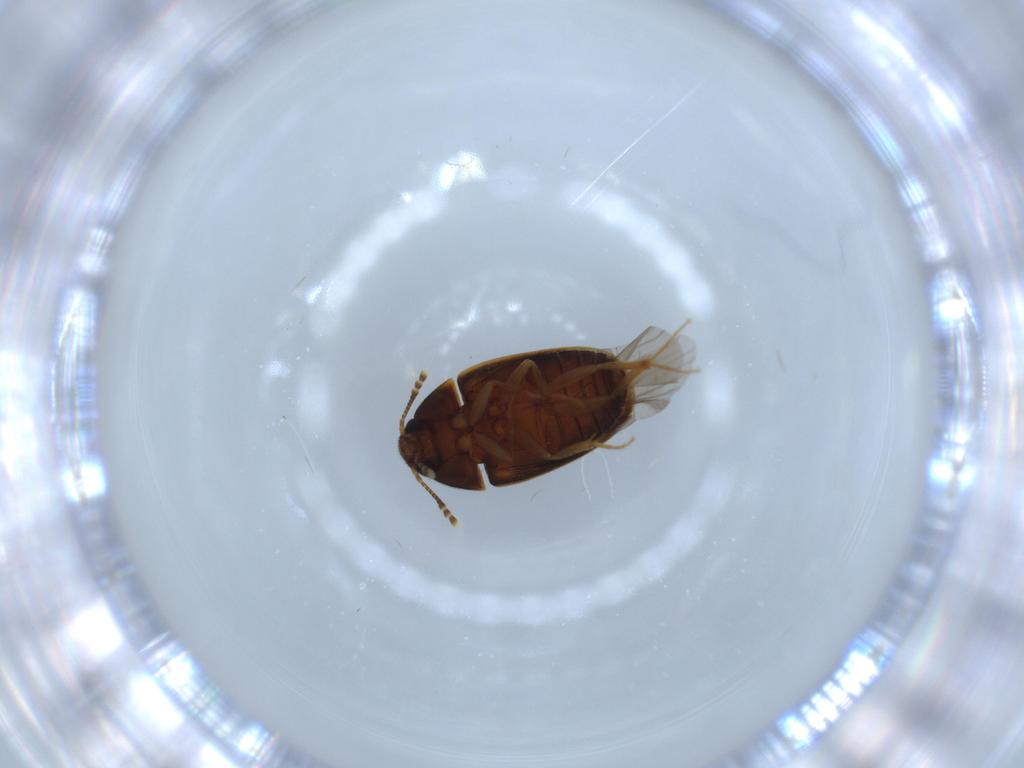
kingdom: Animalia
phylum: Arthropoda
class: Insecta
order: Coleoptera
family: Mycetophagidae
